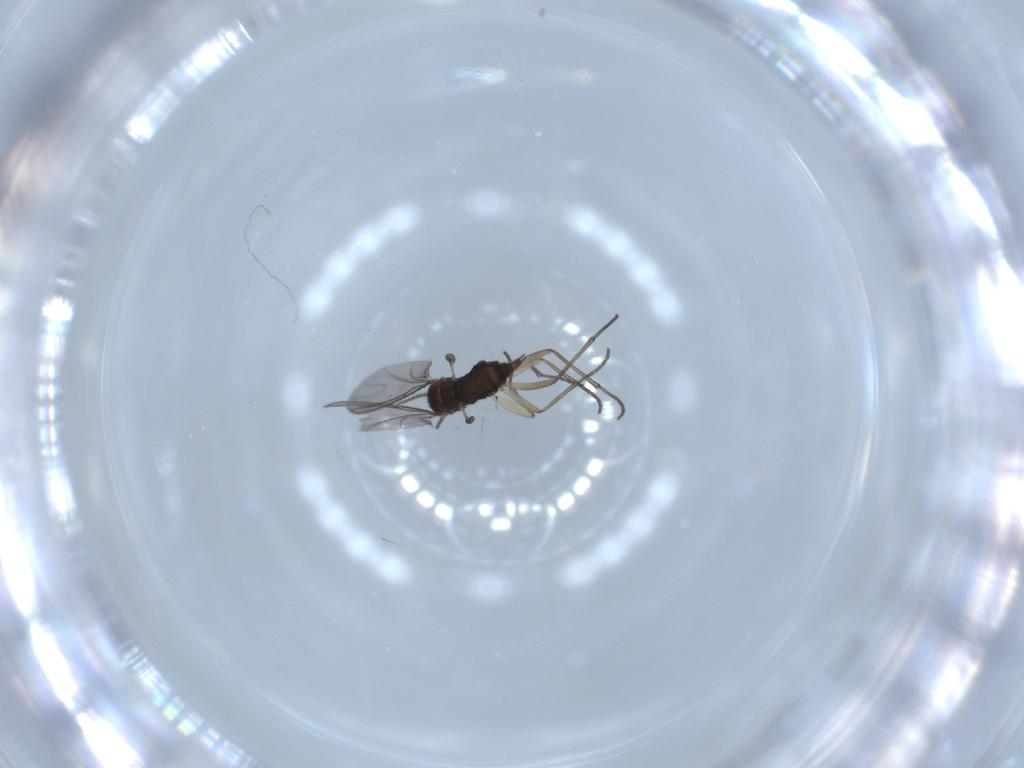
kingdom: Animalia
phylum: Arthropoda
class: Insecta
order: Diptera
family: Sciaridae
